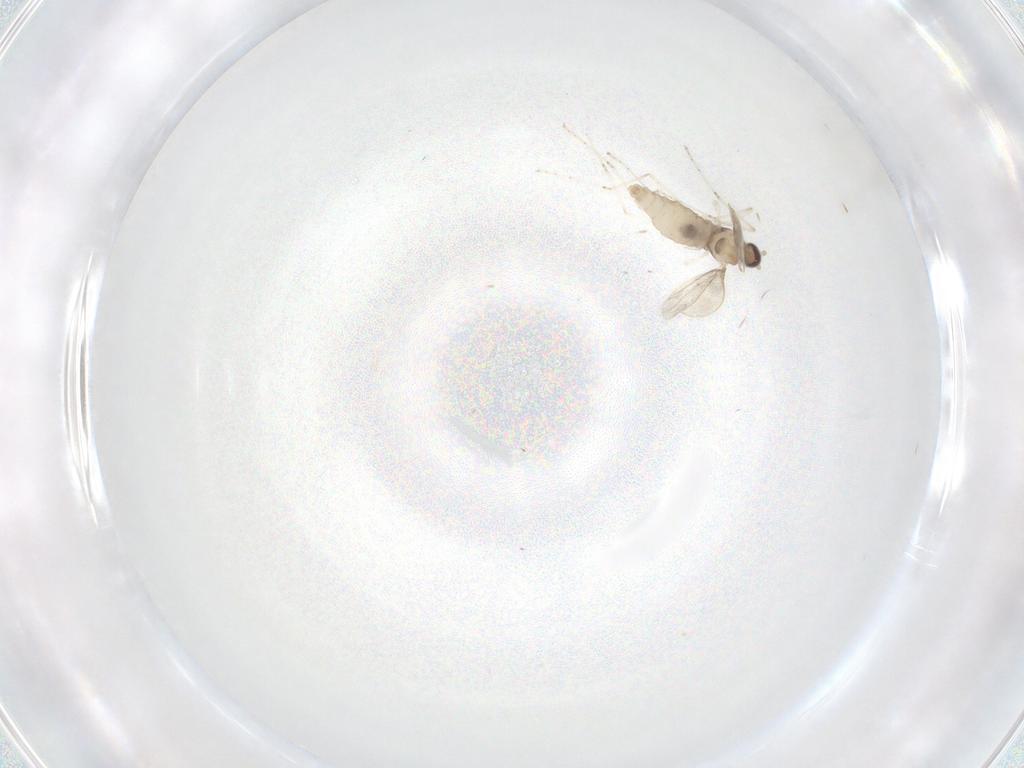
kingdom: Animalia
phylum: Arthropoda
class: Insecta
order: Diptera
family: Cecidomyiidae
